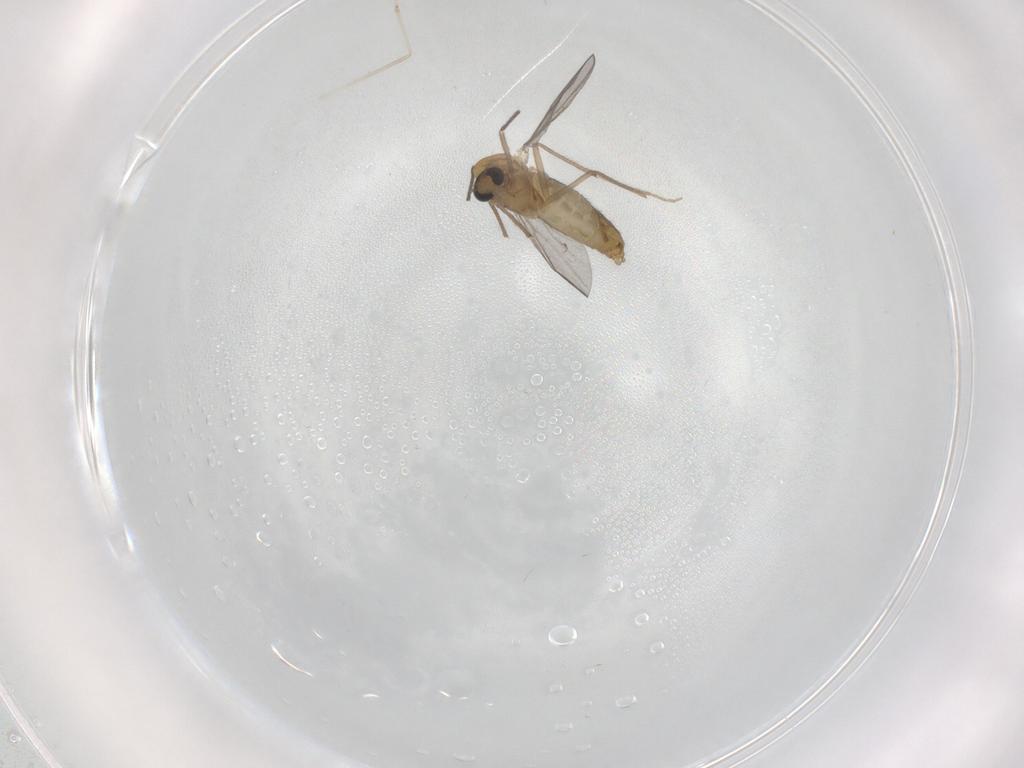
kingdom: Animalia
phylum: Arthropoda
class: Insecta
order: Diptera
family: Chironomidae
